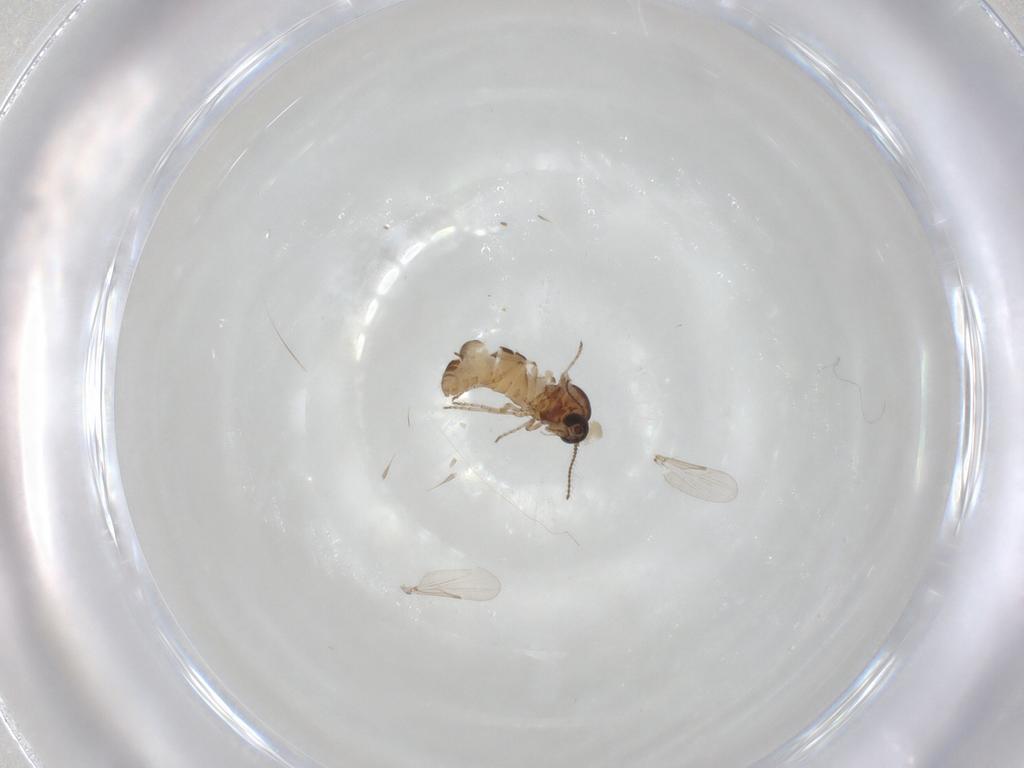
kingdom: Animalia
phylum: Arthropoda
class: Insecta
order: Diptera
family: Ceratopogonidae
